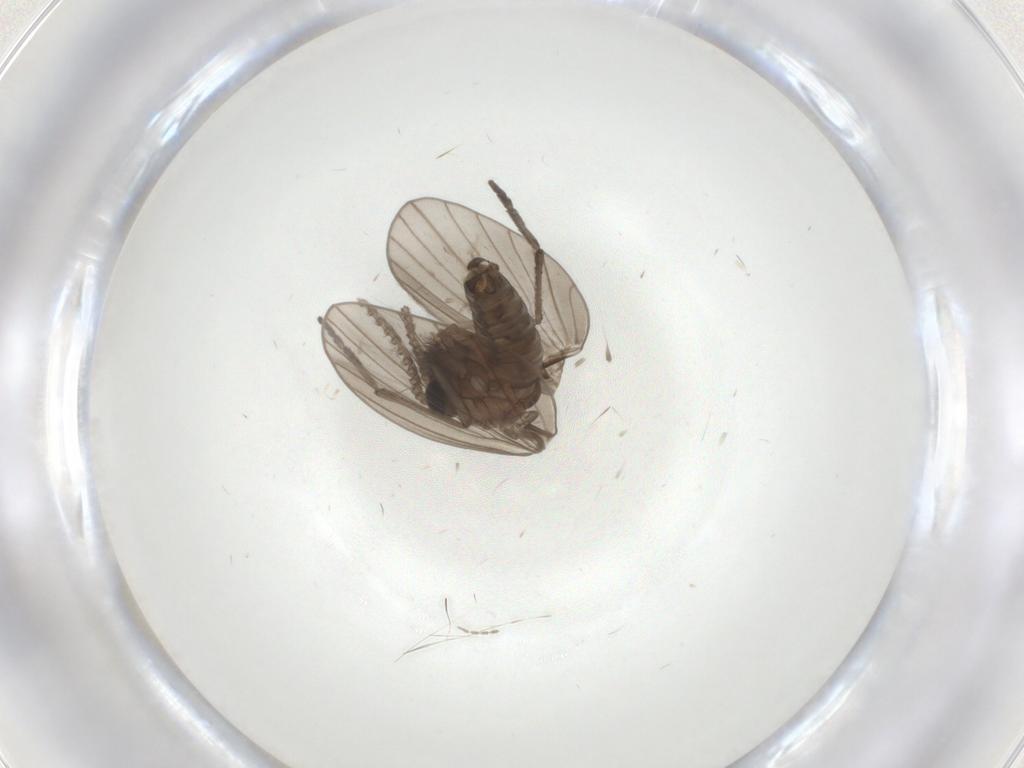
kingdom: Animalia
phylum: Arthropoda
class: Insecta
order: Diptera
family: Psychodidae
